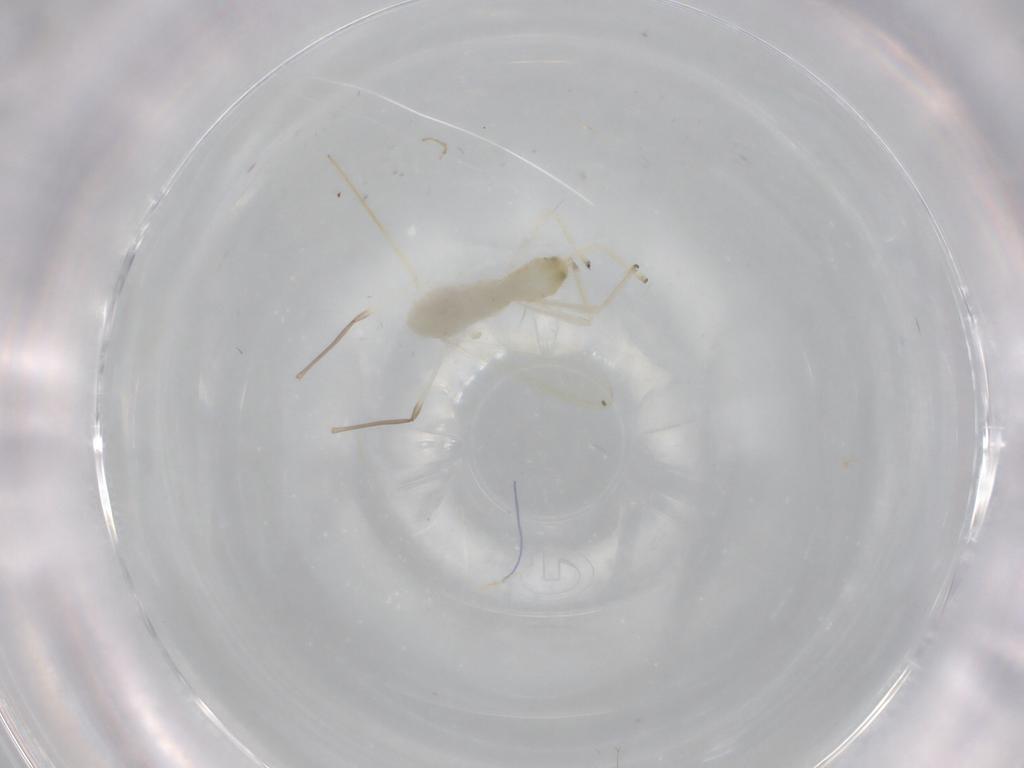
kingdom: Animalia
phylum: Arthropoda
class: Insecta
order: Diptera
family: Chironomidae
